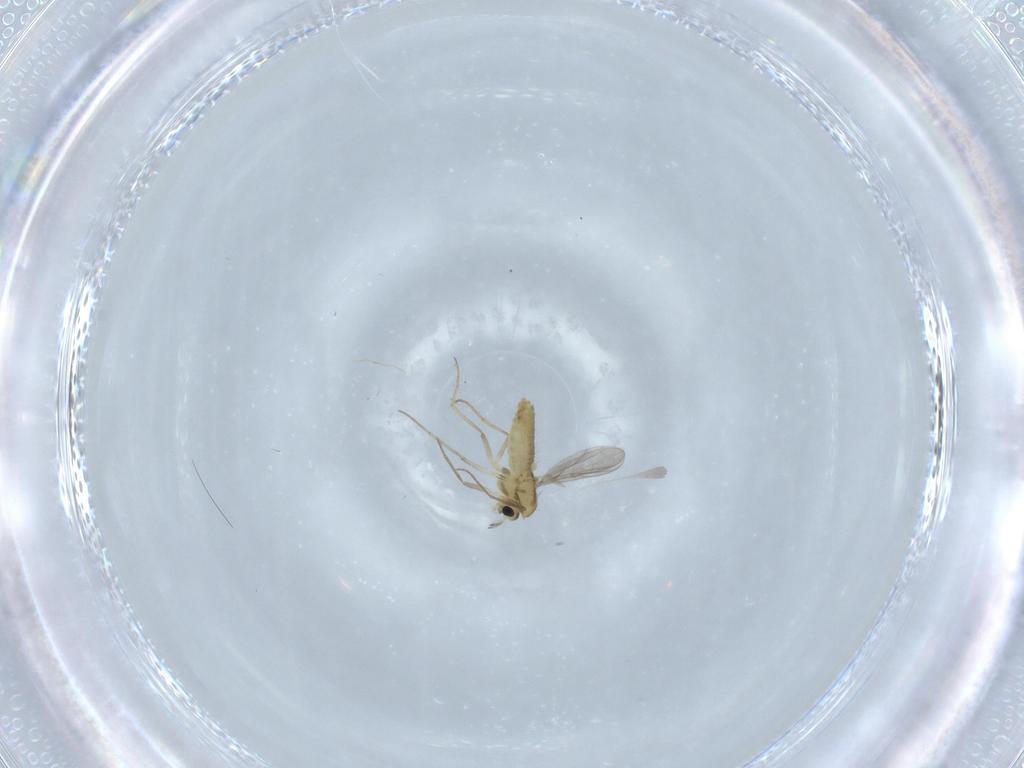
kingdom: Animalia
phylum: Arthropoda
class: Insecta
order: Diptera
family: Chironomidae
